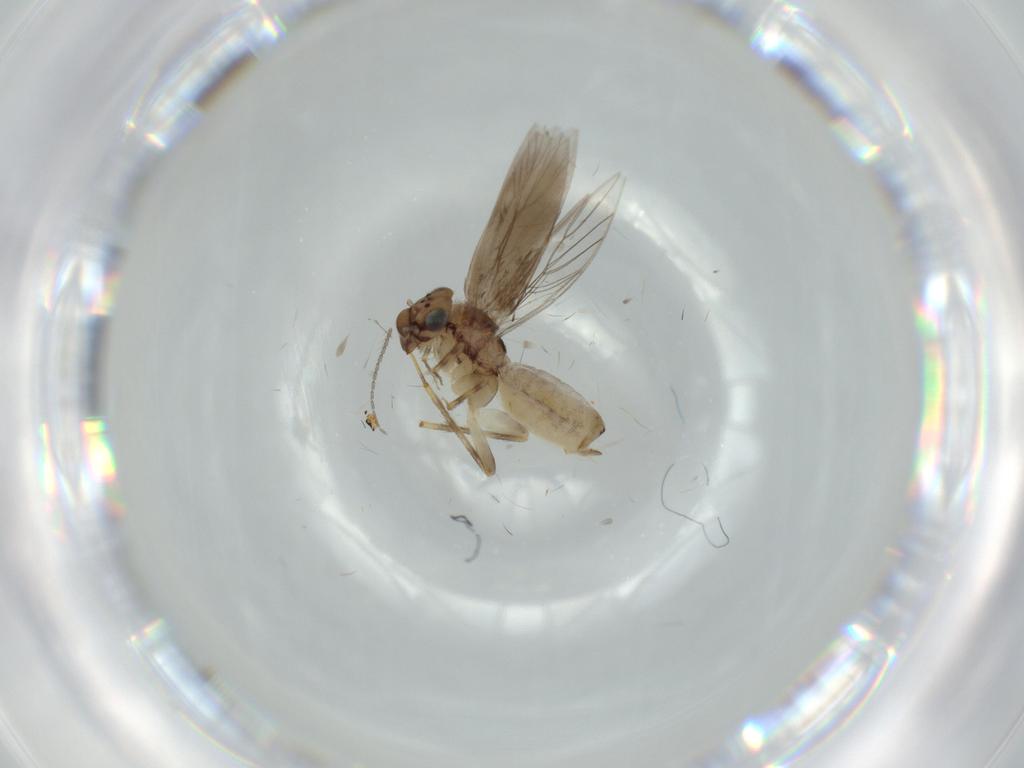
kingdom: Animalia
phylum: Arthropoda
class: Insecta
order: Psocodea
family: Lepidopsocidae
